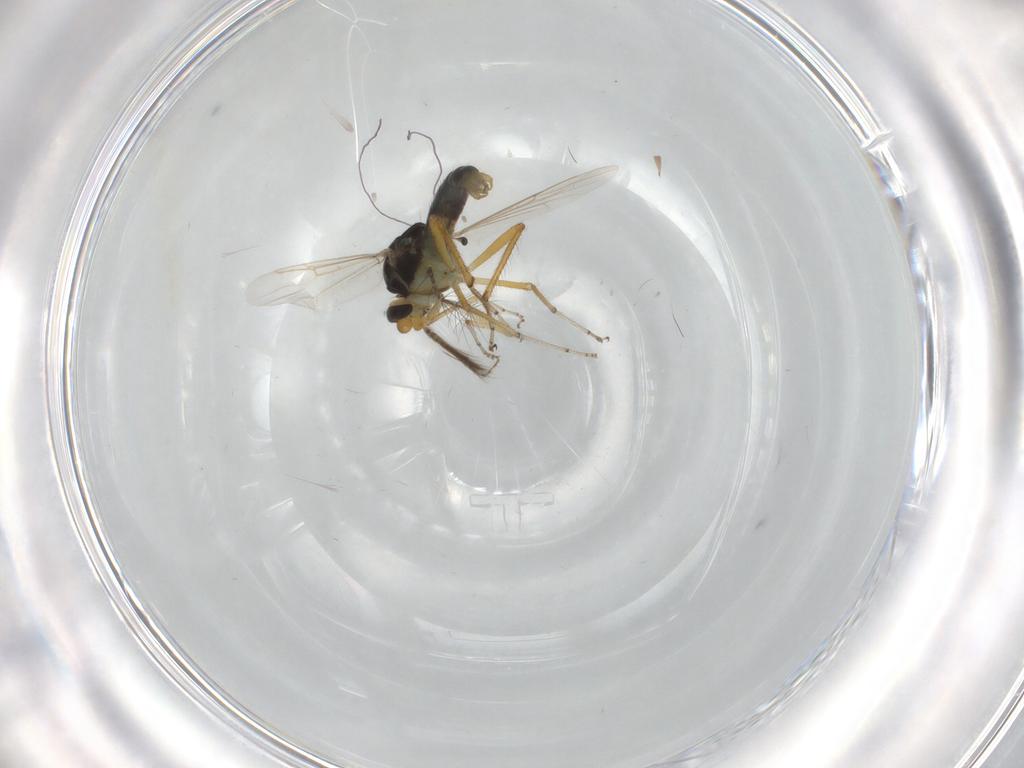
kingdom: Animalia
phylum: Arthropoda
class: Insecta
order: Diptera
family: Ceratopogonidae
